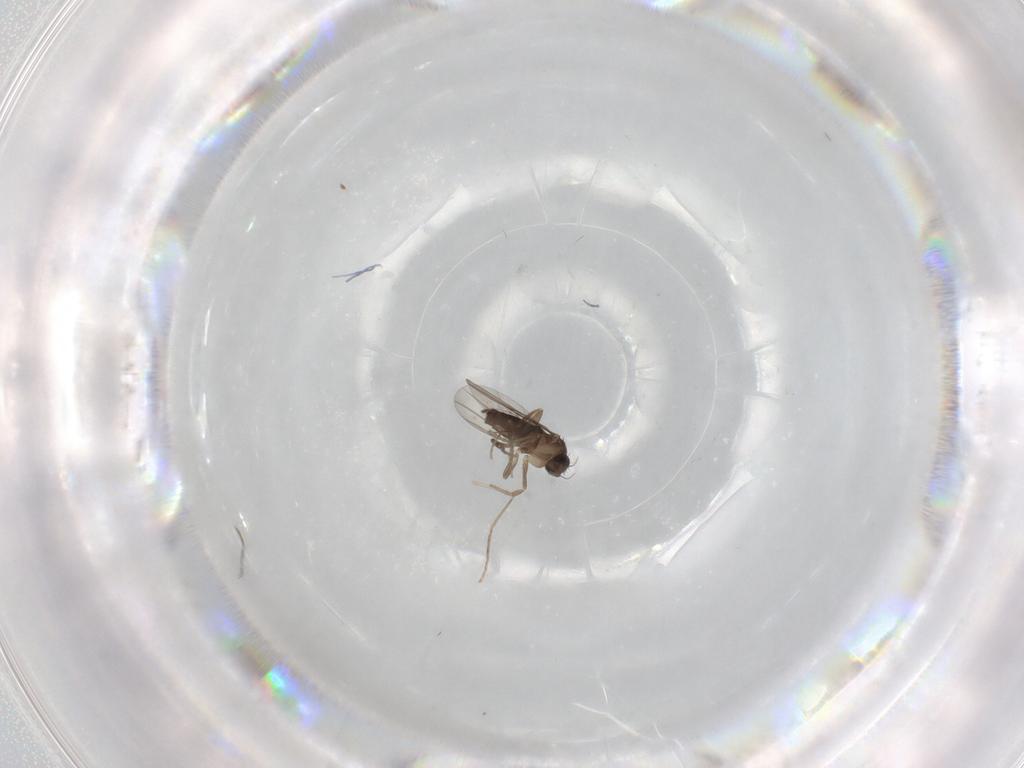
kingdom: Animalia
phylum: Arthropoda
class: Insecta
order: Diptera
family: Cecidomyiidae
